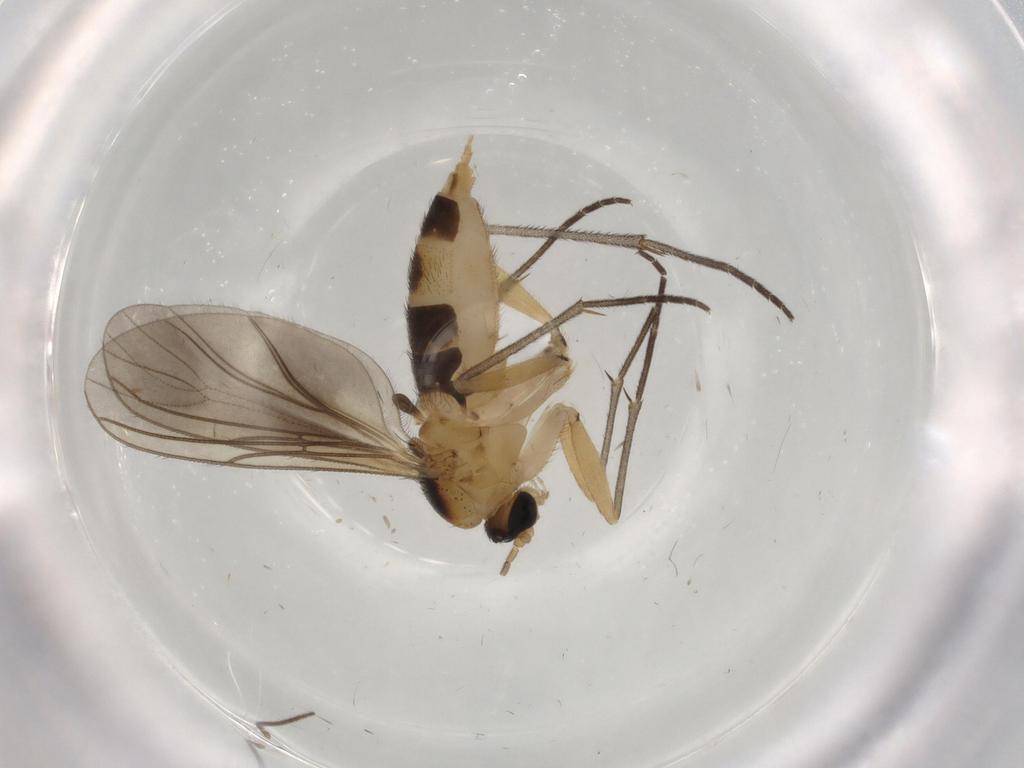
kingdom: Animalia
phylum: Arthropoda
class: Insecta
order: Diptera
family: Sciaridae
